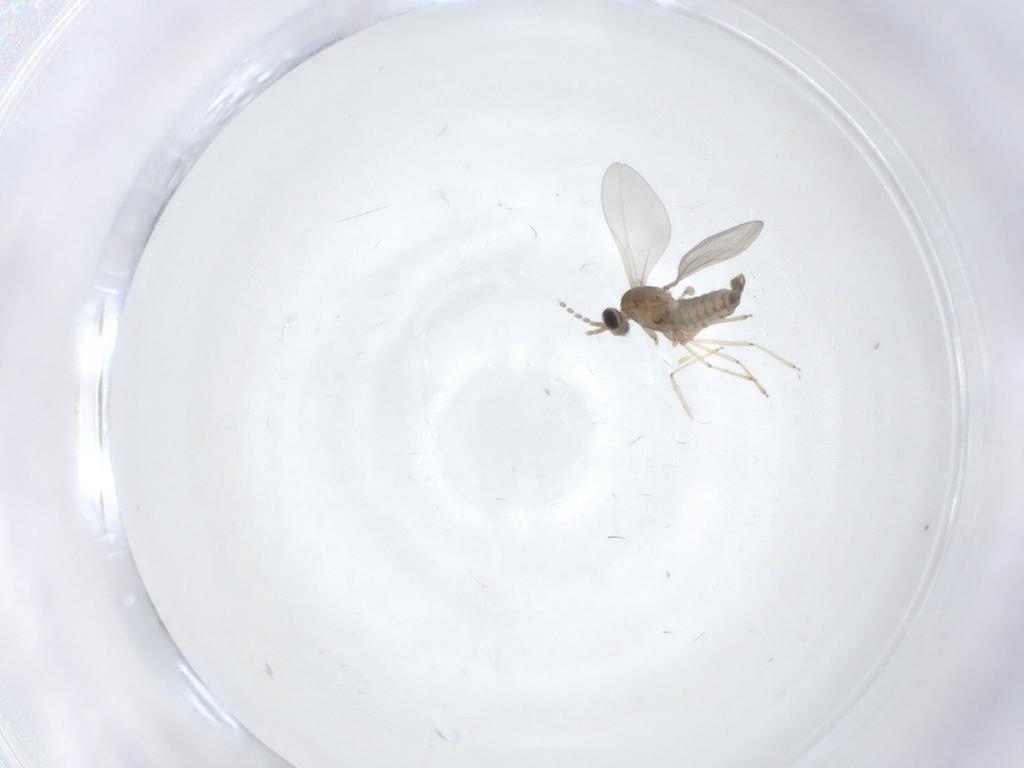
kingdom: Animalia
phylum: Arthropoda
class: Insecta
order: Diptera
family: Cecidomyiidae
